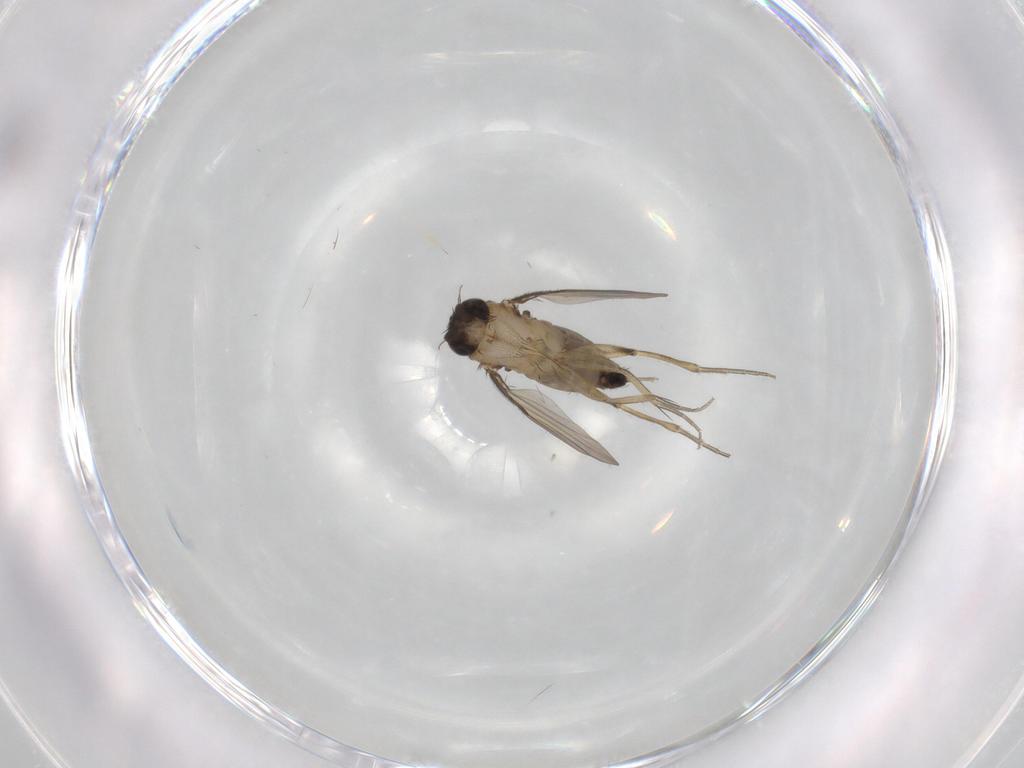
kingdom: Animalia
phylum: Arthropoda
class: Insecta
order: Diptera
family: Phoridae
